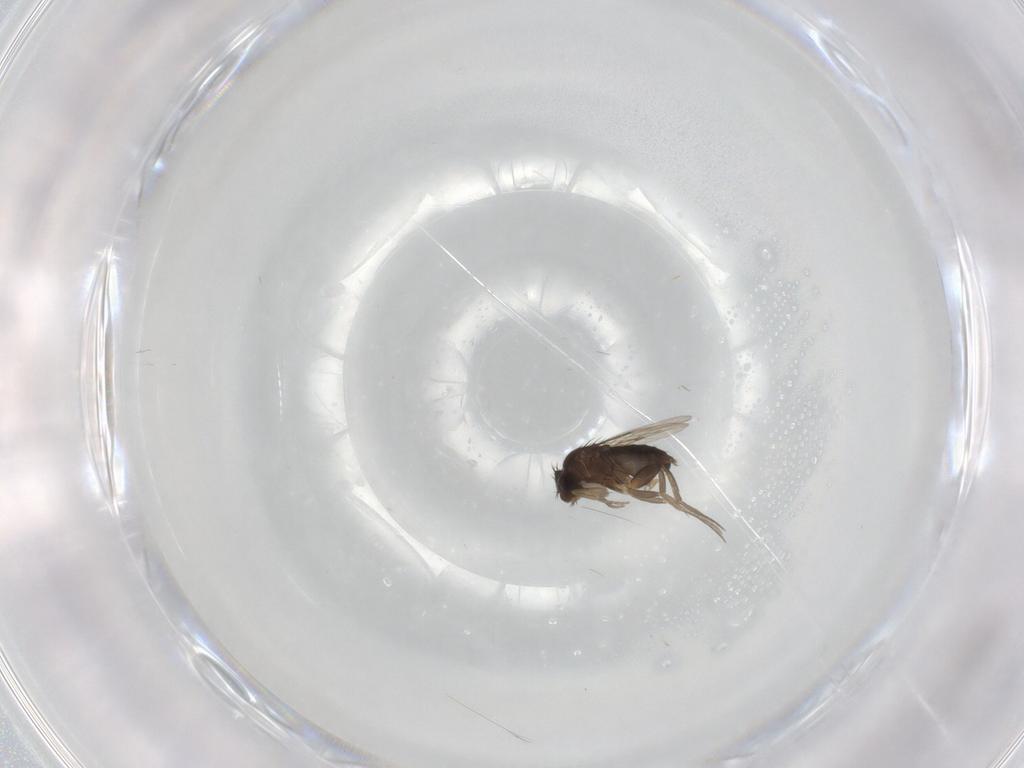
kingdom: Animalia
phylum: Arthropoda
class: Insecta
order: Diptera
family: Phoridae
